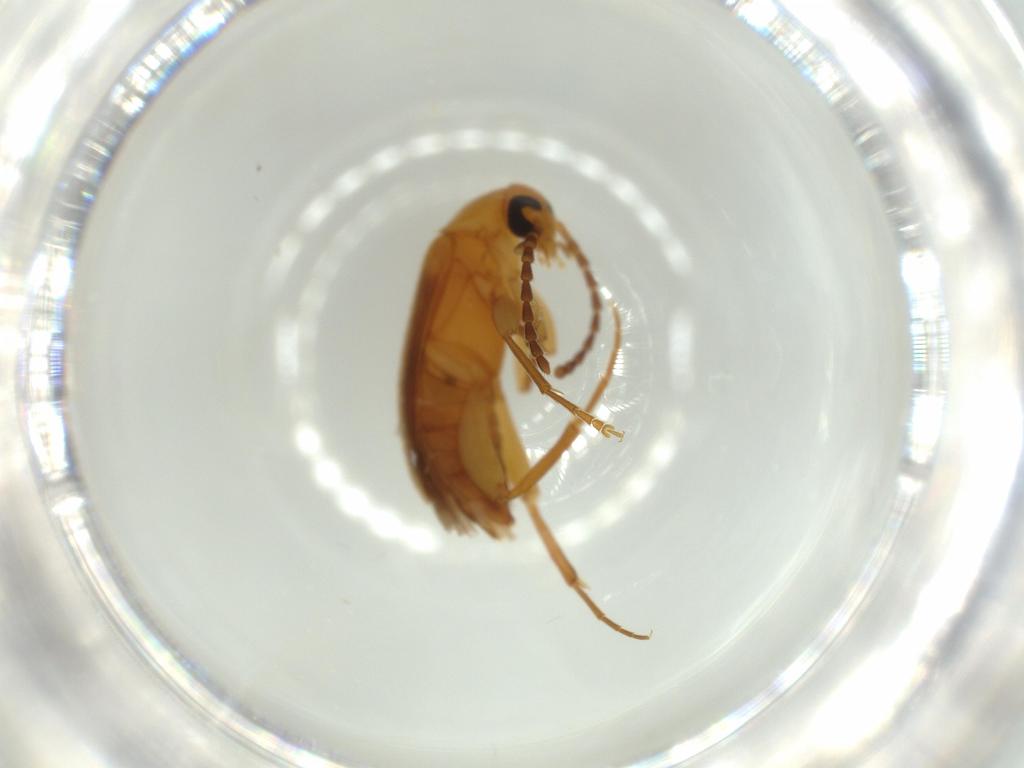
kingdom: Animalia
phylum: Arthropoda
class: Insecta
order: Coleoptera
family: Scraptiidae
